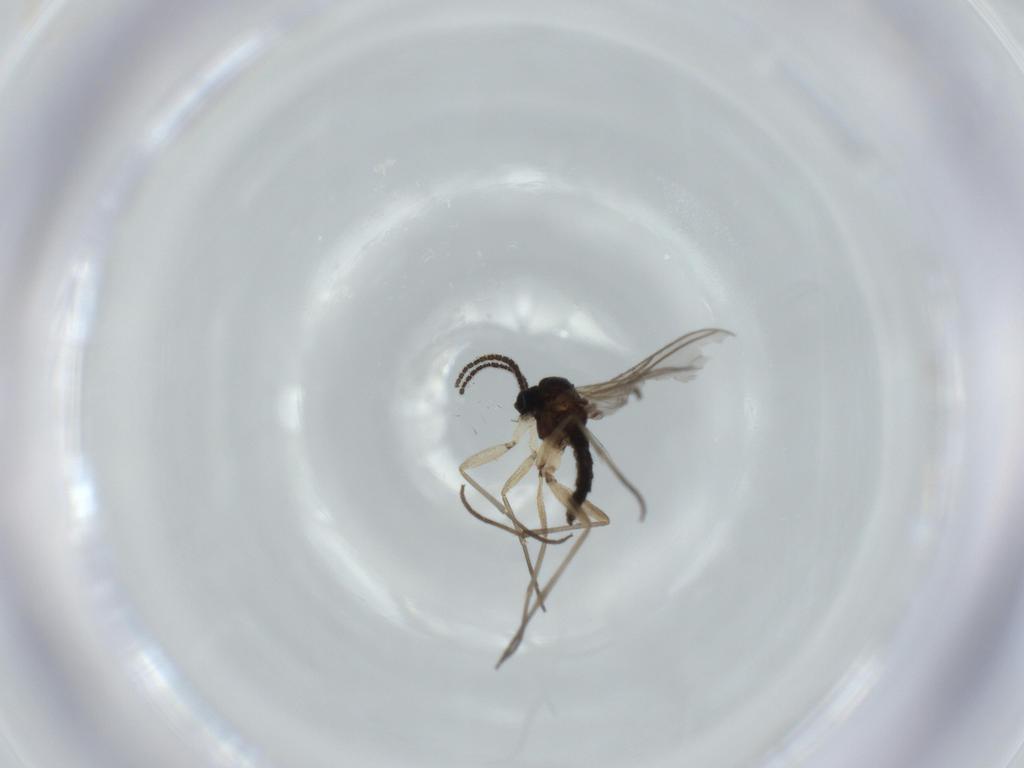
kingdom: Animalia
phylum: Arthropoda
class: Insecta
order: Diptera
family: Sciaridae
